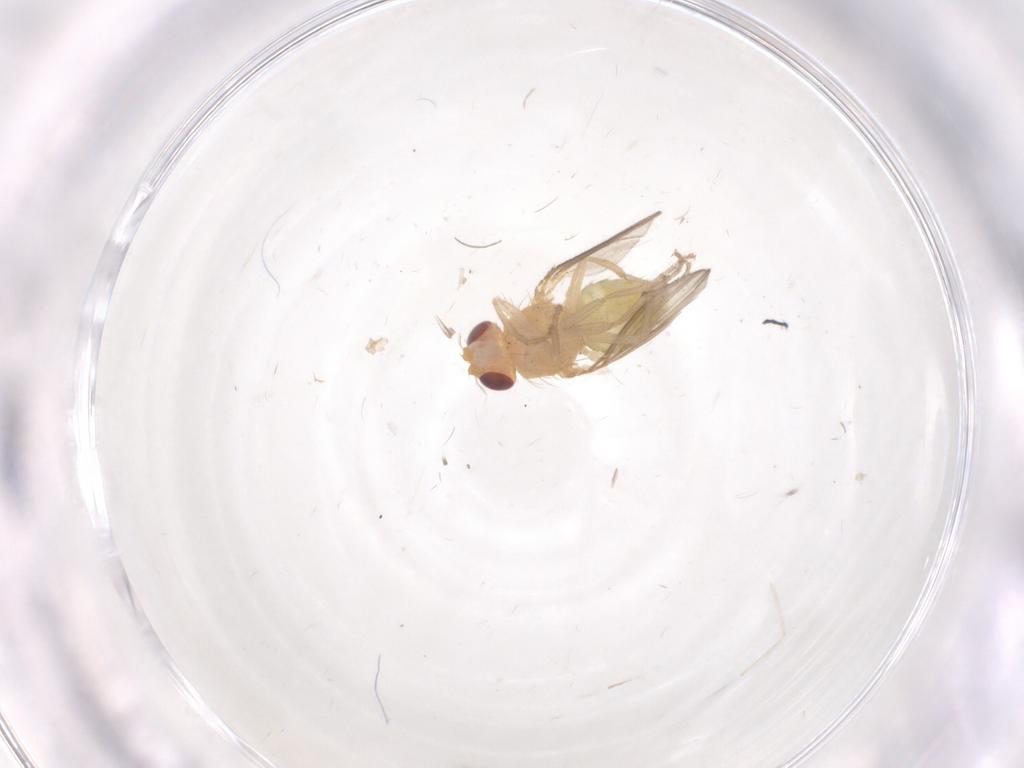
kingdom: Animalia
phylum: Arthropoda
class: Insecta
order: Diptera
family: Drosophilidae
